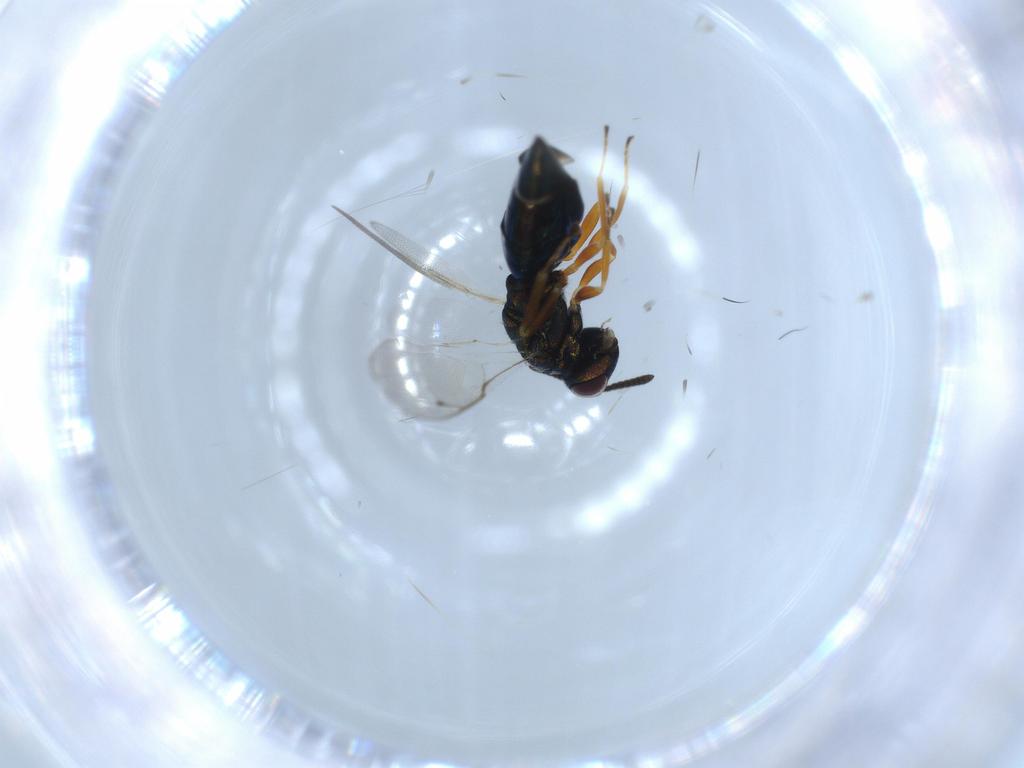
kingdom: Animalia
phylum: Arthropoda
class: Insecta
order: Hymenoptera
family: Pteromalidae
